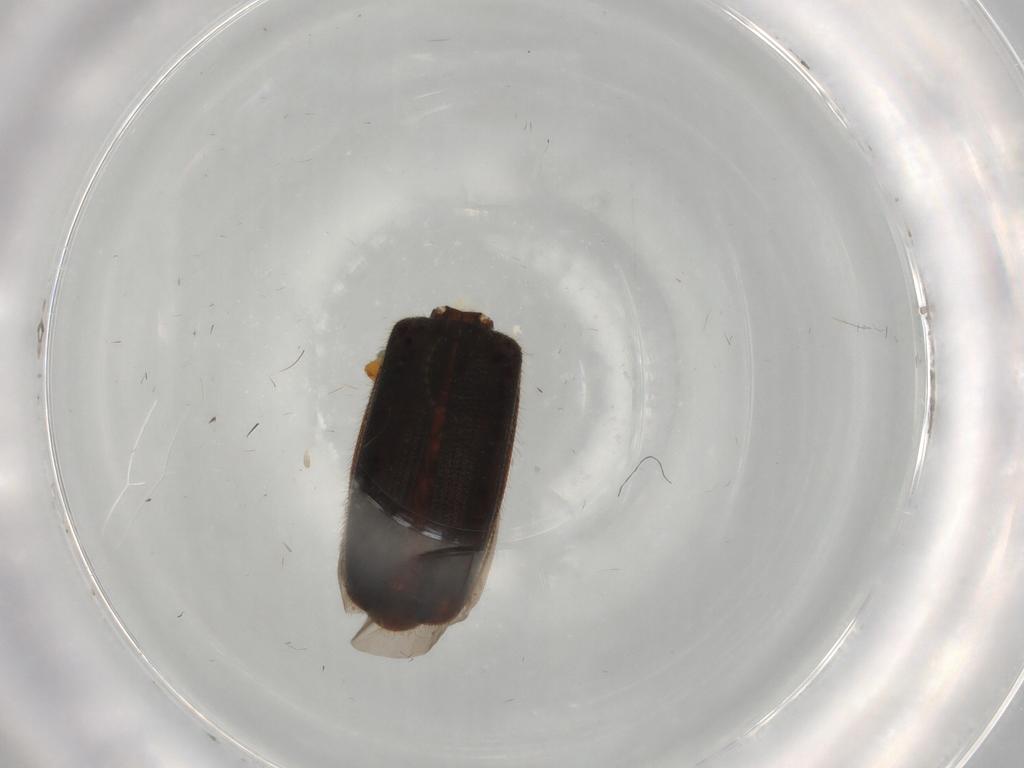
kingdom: Animalia
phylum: Arthropoda
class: Insecta
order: Coleoptera
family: Silvanidae
